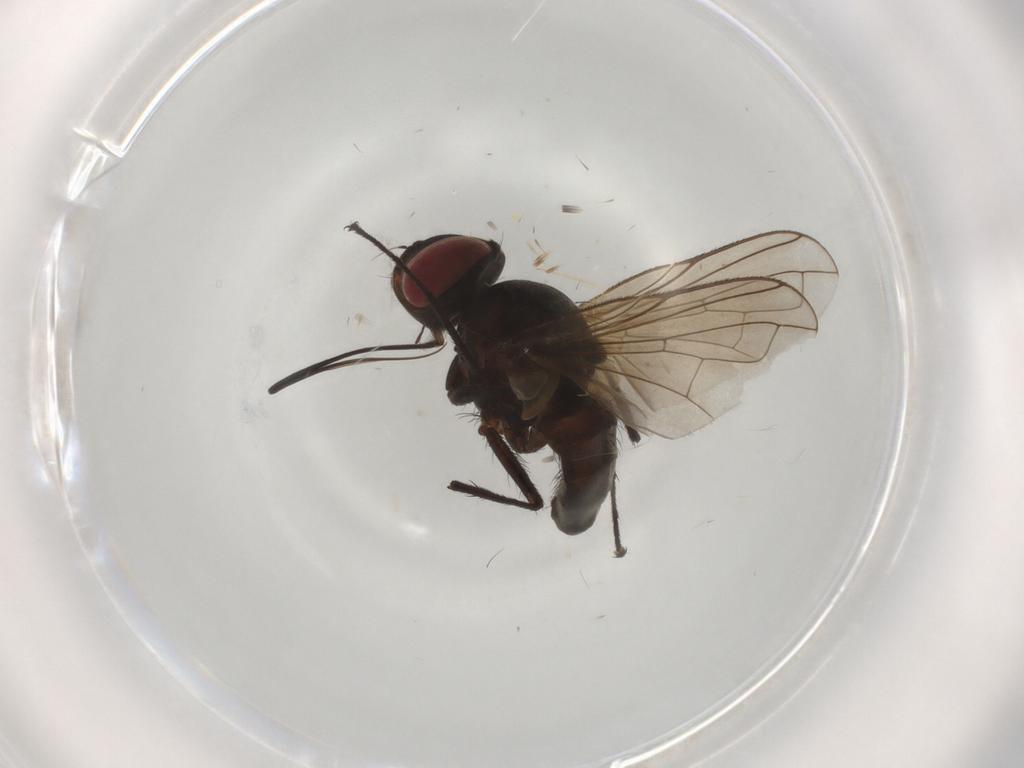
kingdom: Animalia
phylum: Arthropoda
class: Insecta
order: Diptera
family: Tachinidae
